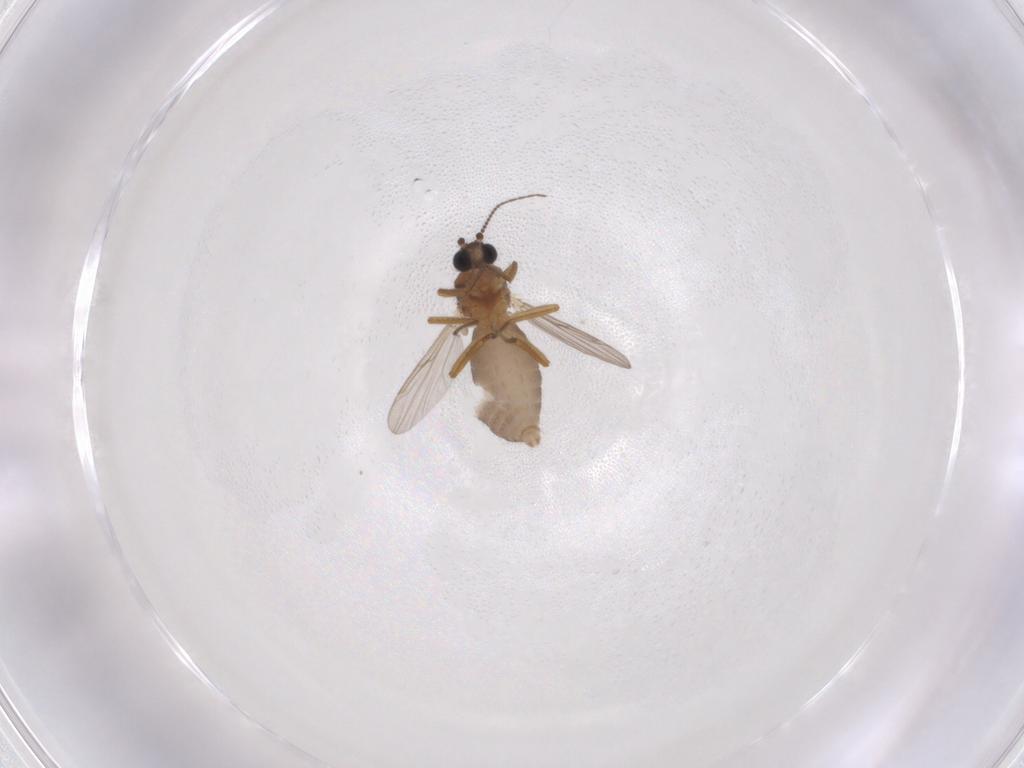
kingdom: Animalia
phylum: Arthropoda
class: Insecta
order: Diptera
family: Ceratopogonidae
